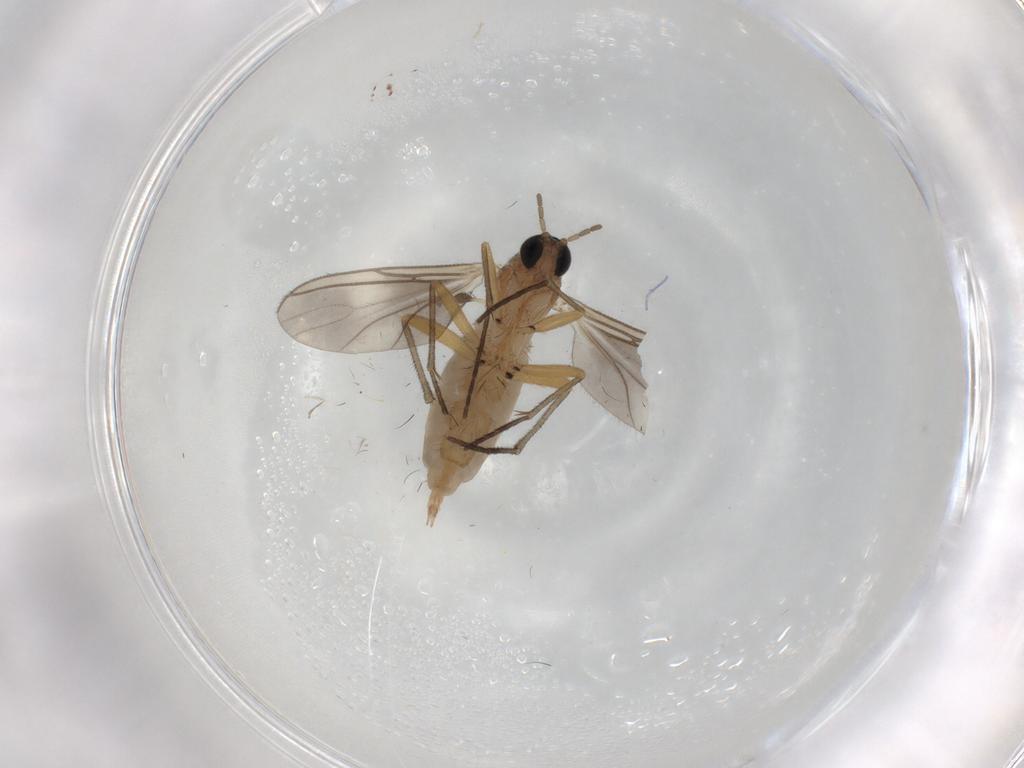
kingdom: Animalia
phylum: Arthropoda
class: Insecta
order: Diptera
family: Sciaridae
